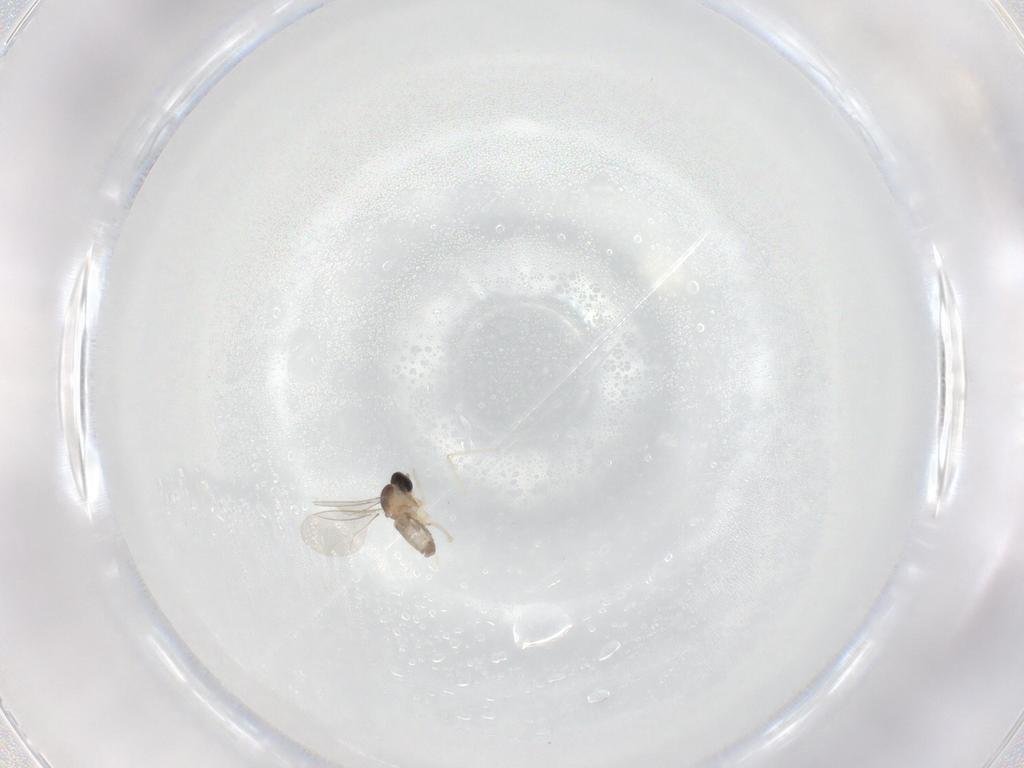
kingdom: Animalia
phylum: Arthropoda
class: Insecta
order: Diptera
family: Cecidomyiidae
